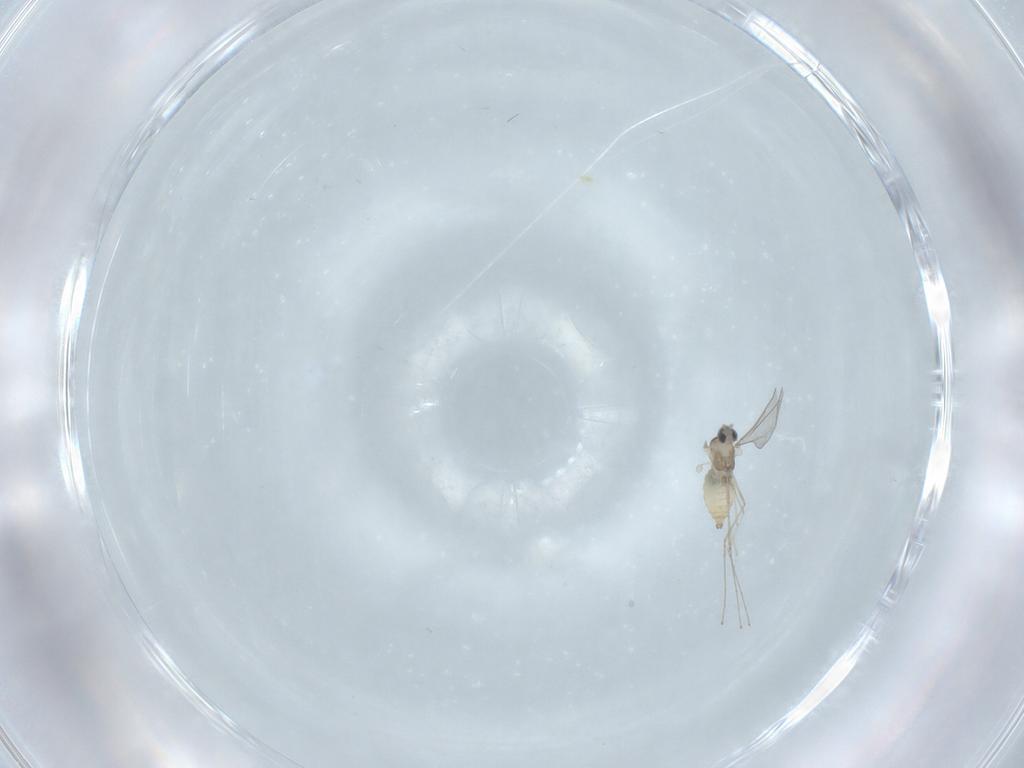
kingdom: Animalia
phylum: Arthropoda
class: Insecta
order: Diptera
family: Cecidomyiidae
